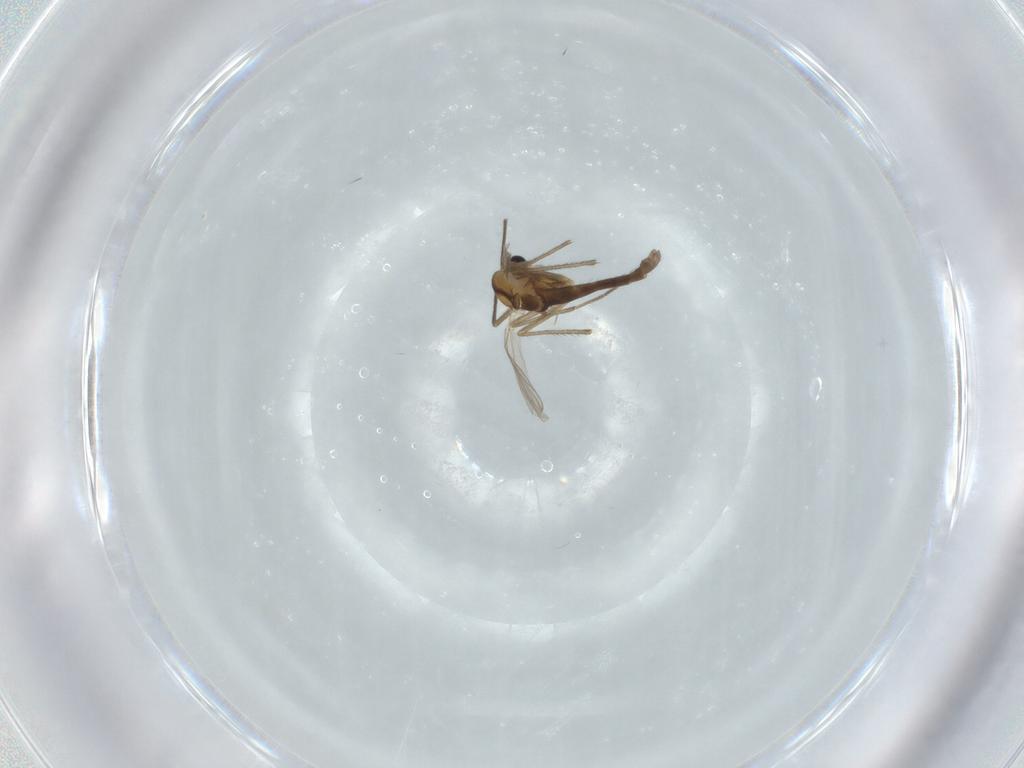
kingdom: Animalia
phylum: Arthropoda
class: Insecta
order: Diptera
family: Chironomidae
